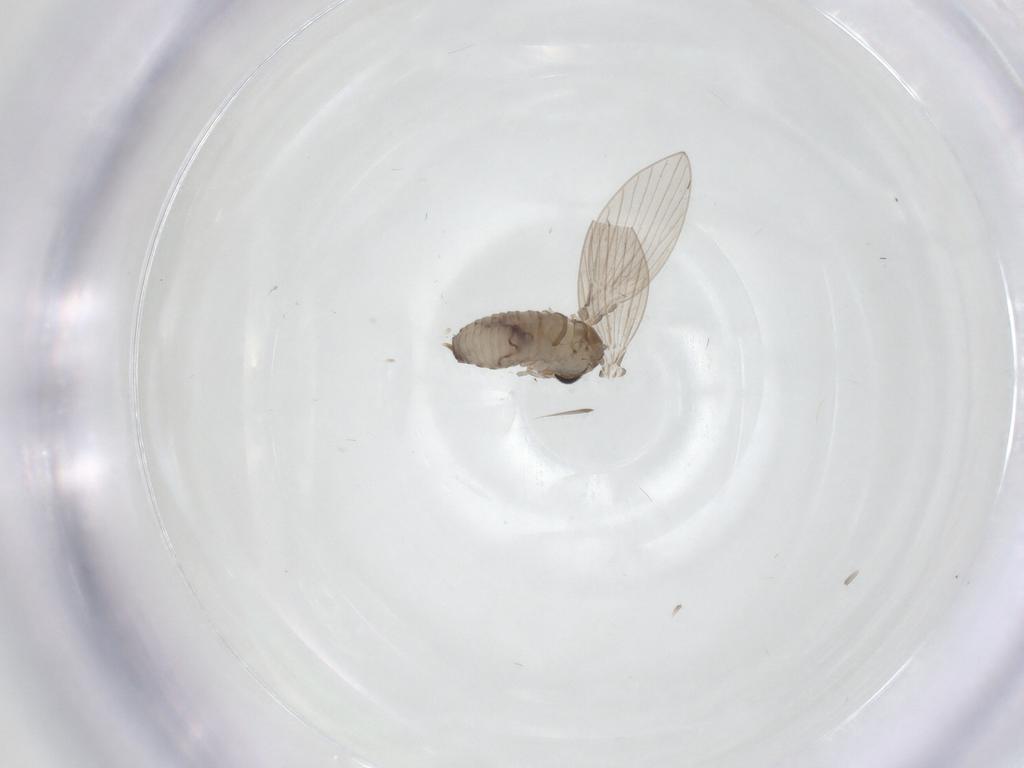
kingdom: Animalia
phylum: Arthropoda
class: Insecta
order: Diptera
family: Psychodidae
